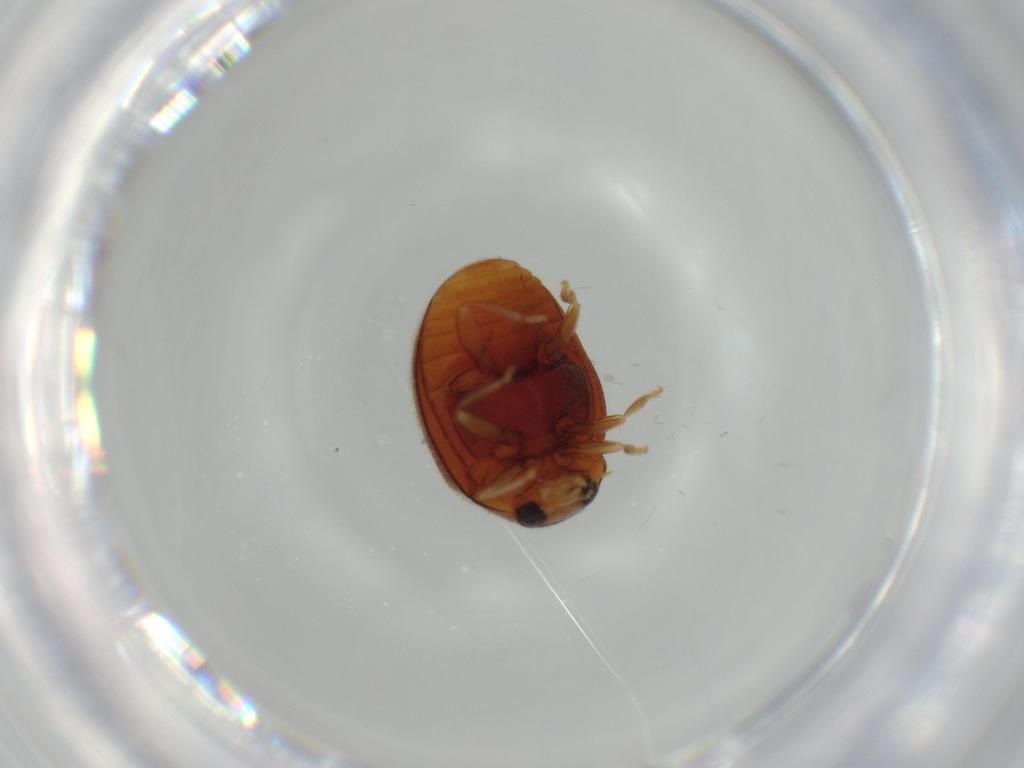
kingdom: Animalia
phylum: Arthropoda
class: Insecta
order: Coleoptera
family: Coccinellidae
